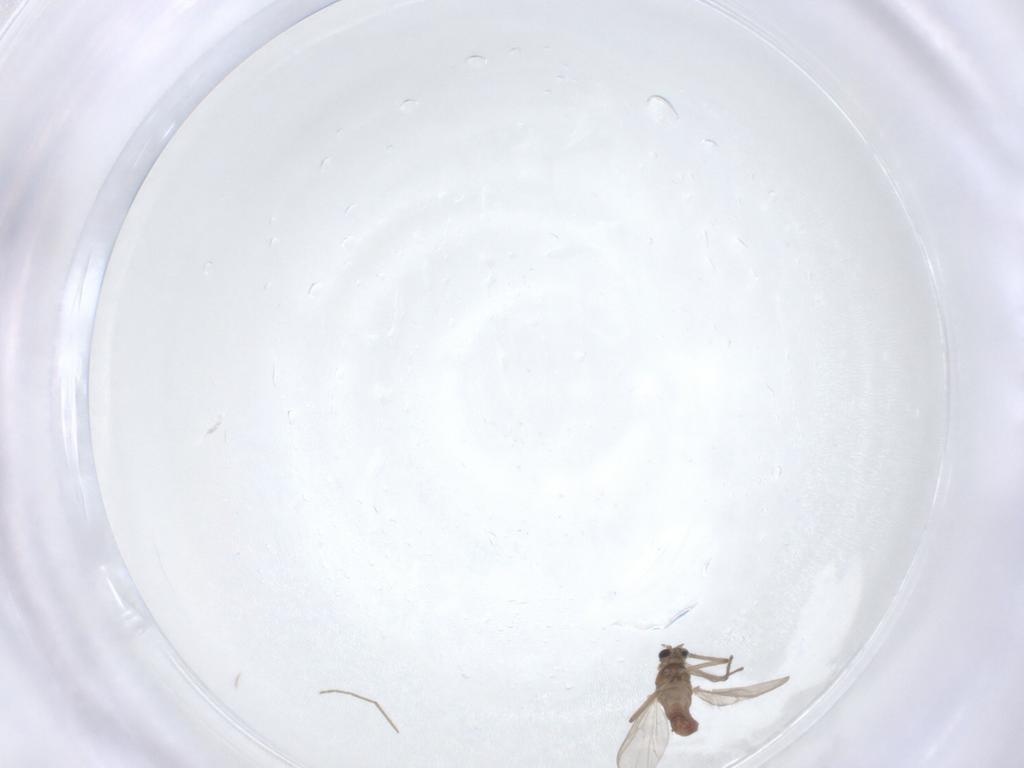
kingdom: Animalia
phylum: Arthropoda
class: Insecta
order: Diptera
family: Chironomidae
